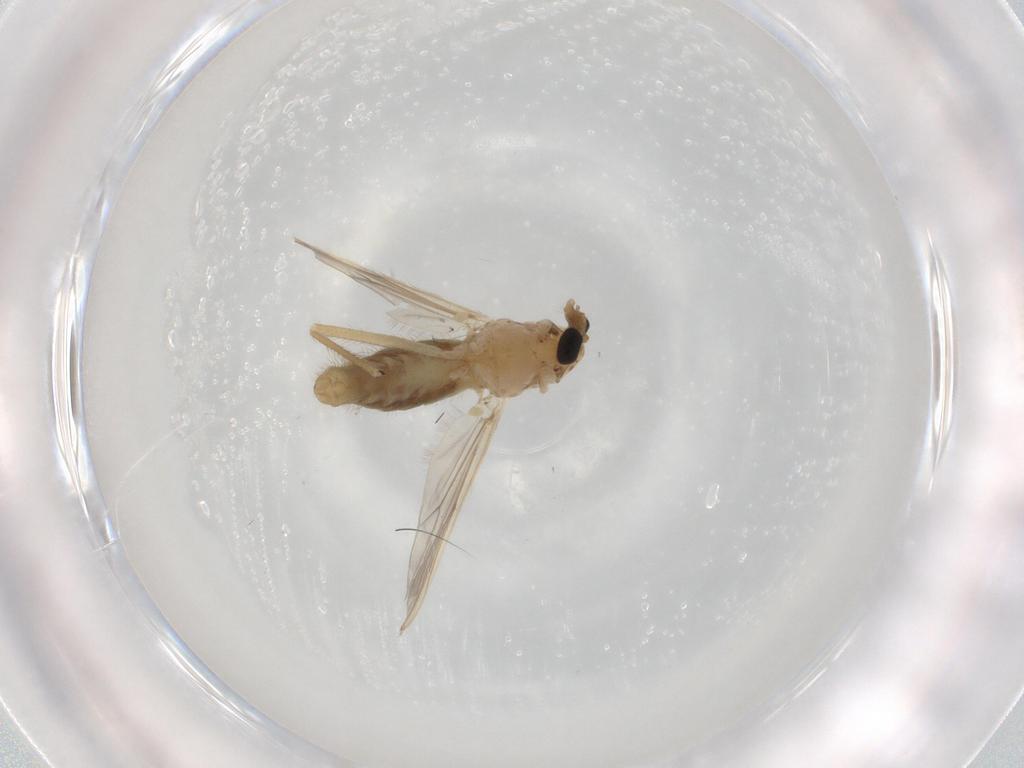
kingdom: Animalia
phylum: Arthropoda
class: Insecta
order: Diptera
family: Chironomidae
